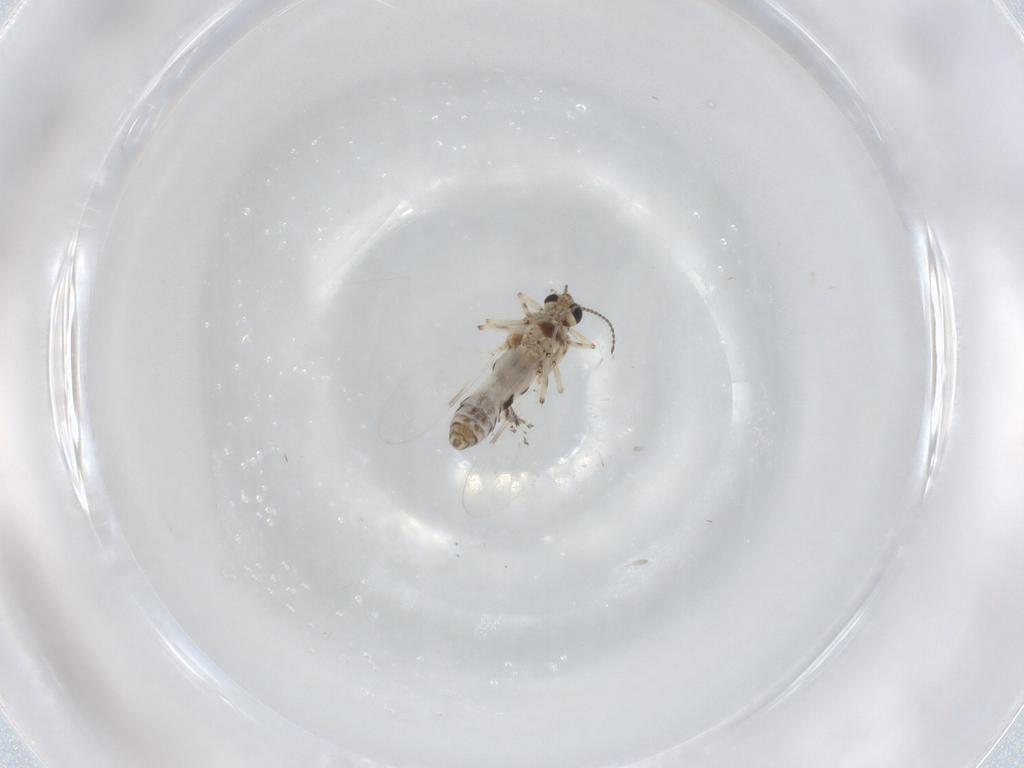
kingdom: Animalia
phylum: Arthropoda
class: Insecta
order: Diptera
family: Ceratopogonidae
